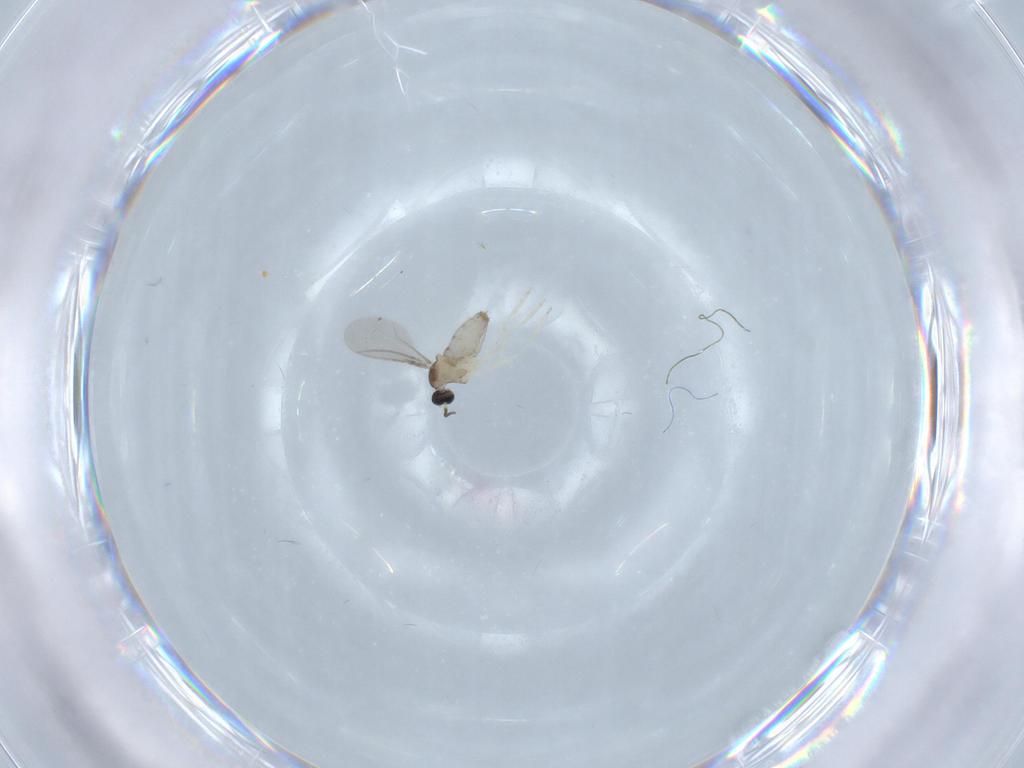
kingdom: Animalia
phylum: Arthropoda
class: Insecta
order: Diptera
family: Cecidomyiidae
